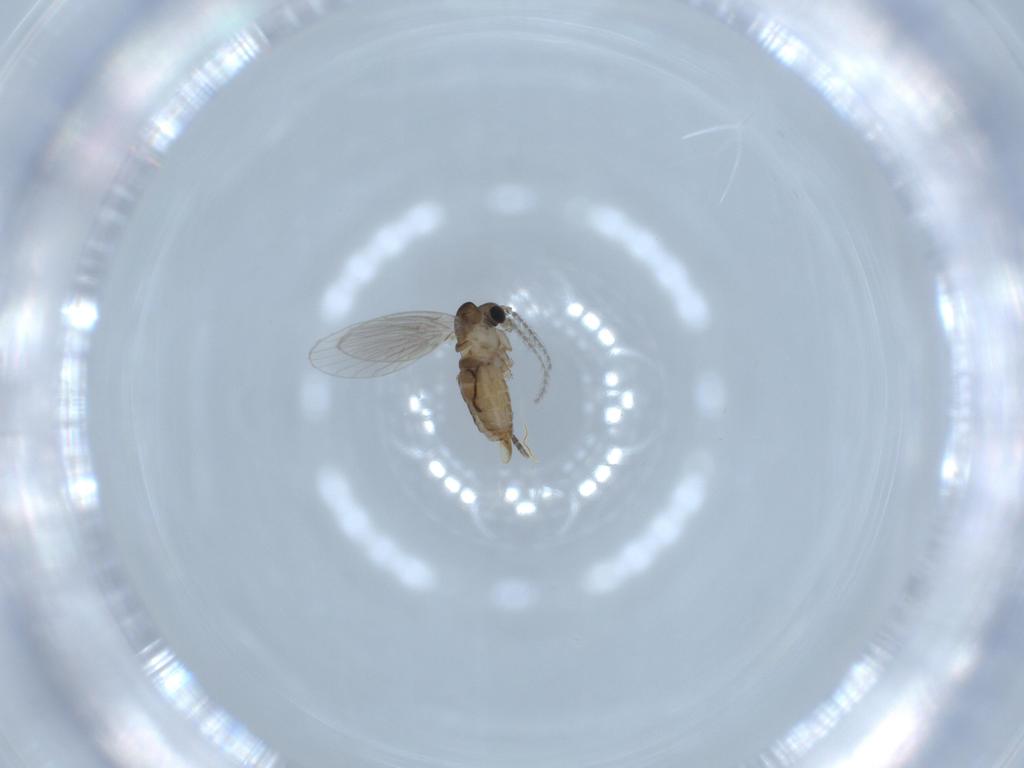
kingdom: Animalia
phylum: Arthropoda
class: Insecta
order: Diptera
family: Psychodidae
